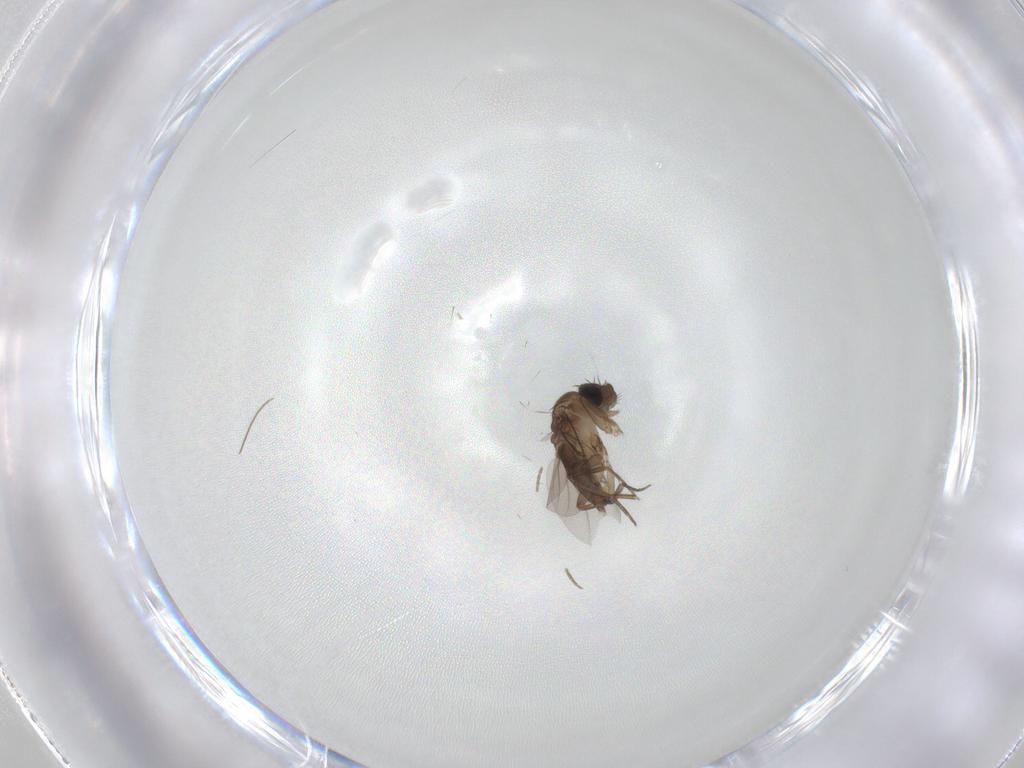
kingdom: Animalia
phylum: Arthropoda
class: Insecta
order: Diptera
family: Phoridae
